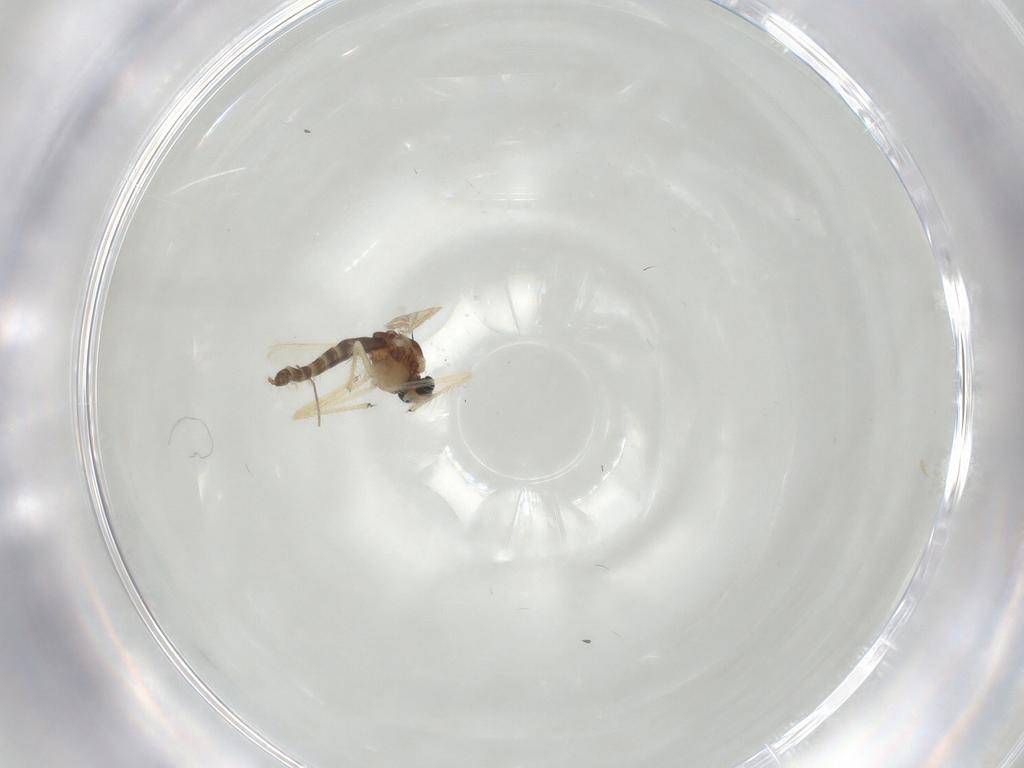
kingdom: Animalia
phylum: Arthropoda
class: Insecta
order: Diptera
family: Chironomidae
